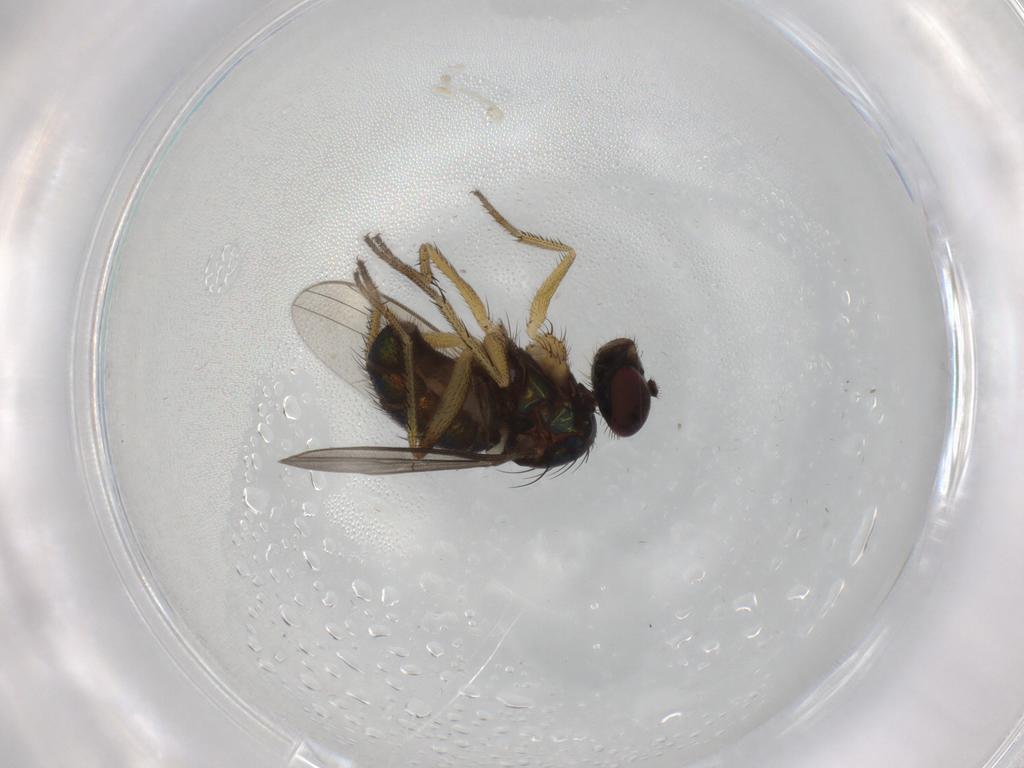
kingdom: Animalia
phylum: Arthropoda
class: Insecta
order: Diptera
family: Dolichopodidae
